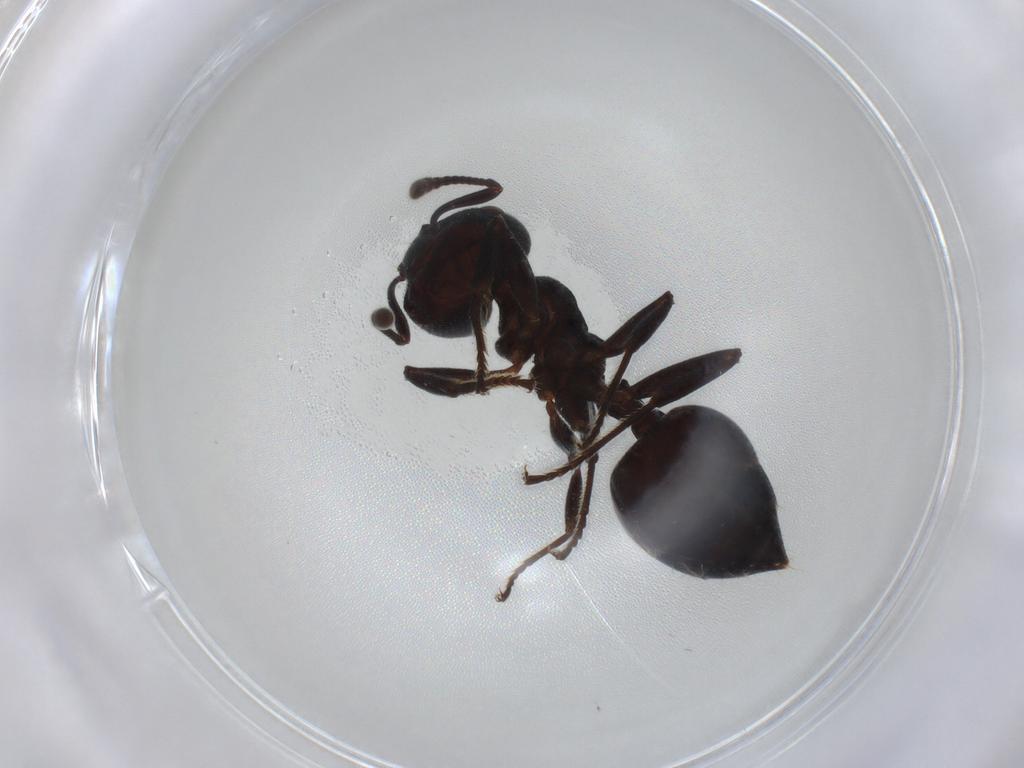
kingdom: Animalia
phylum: Arthropoda
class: Insecta
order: Hymenoptera
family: Formicidae
